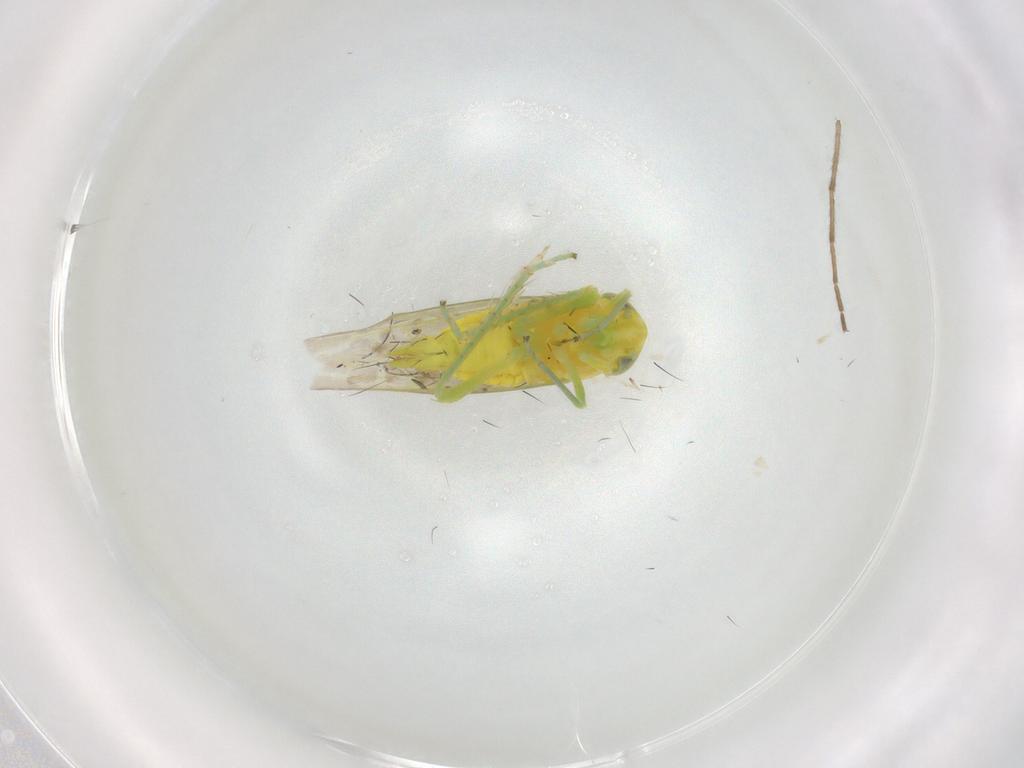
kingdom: Animalia
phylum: Arthropoda
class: Insecta
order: Hemiptera
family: Cicadellidae
